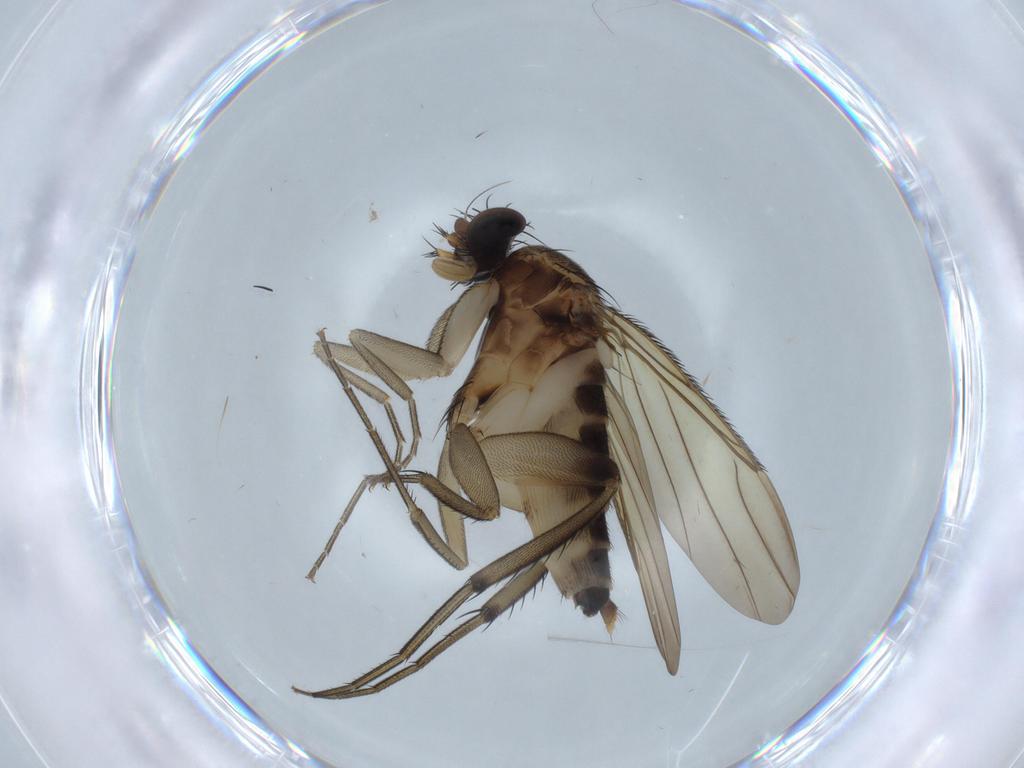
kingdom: Animalia
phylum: Arthropoda
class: Insecta
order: Diptera
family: Phoridae
